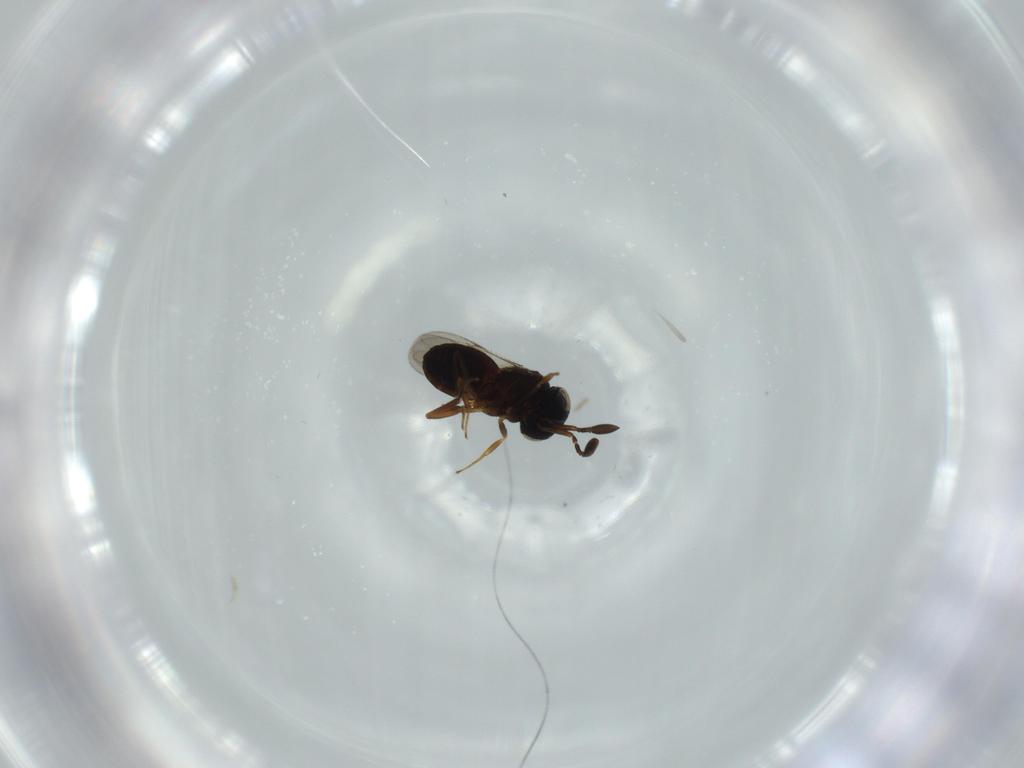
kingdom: Animalia
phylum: Arthropoda
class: Insecta
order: Coleoptera
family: Curculionidae
